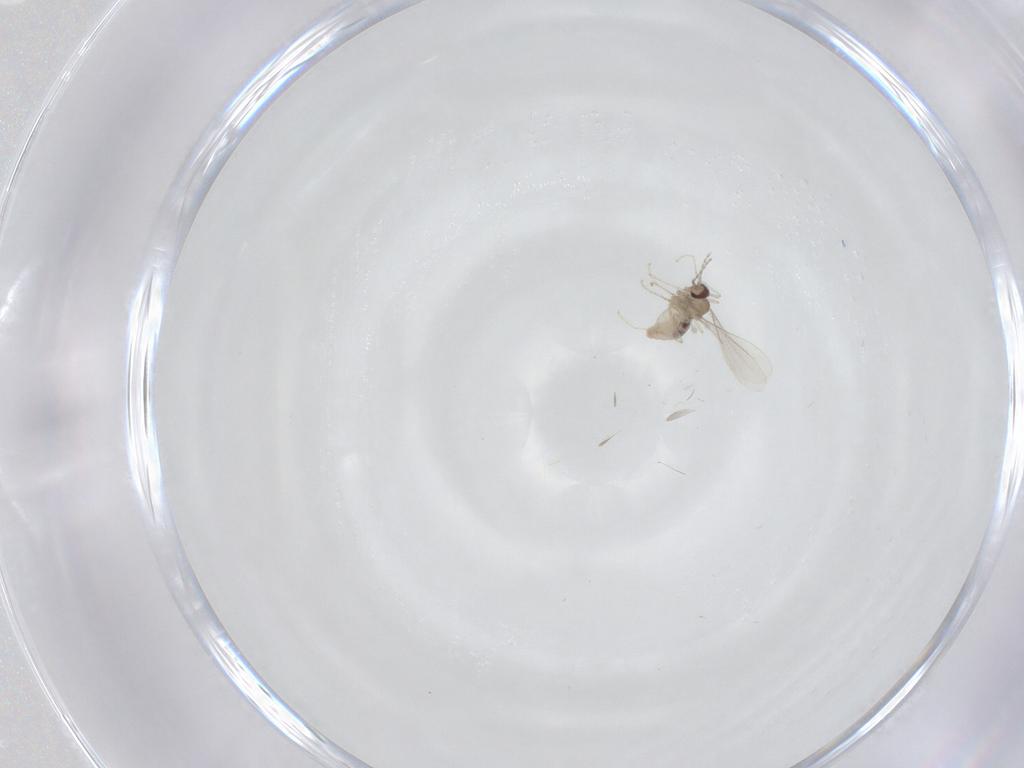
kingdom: Animalia
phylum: Arthropoda
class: Insecta
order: Diptera
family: Cecidomyiidae
